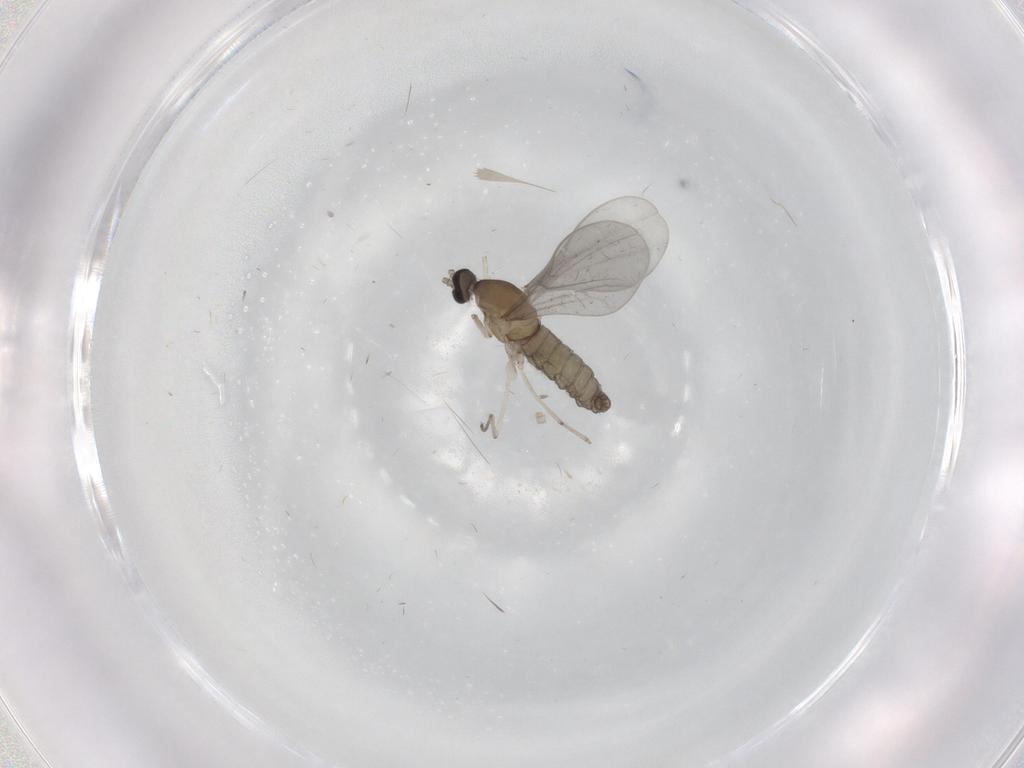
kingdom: Animalia
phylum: Arthropoda
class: Insecta
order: Diptera
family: Cecidomyiidae
